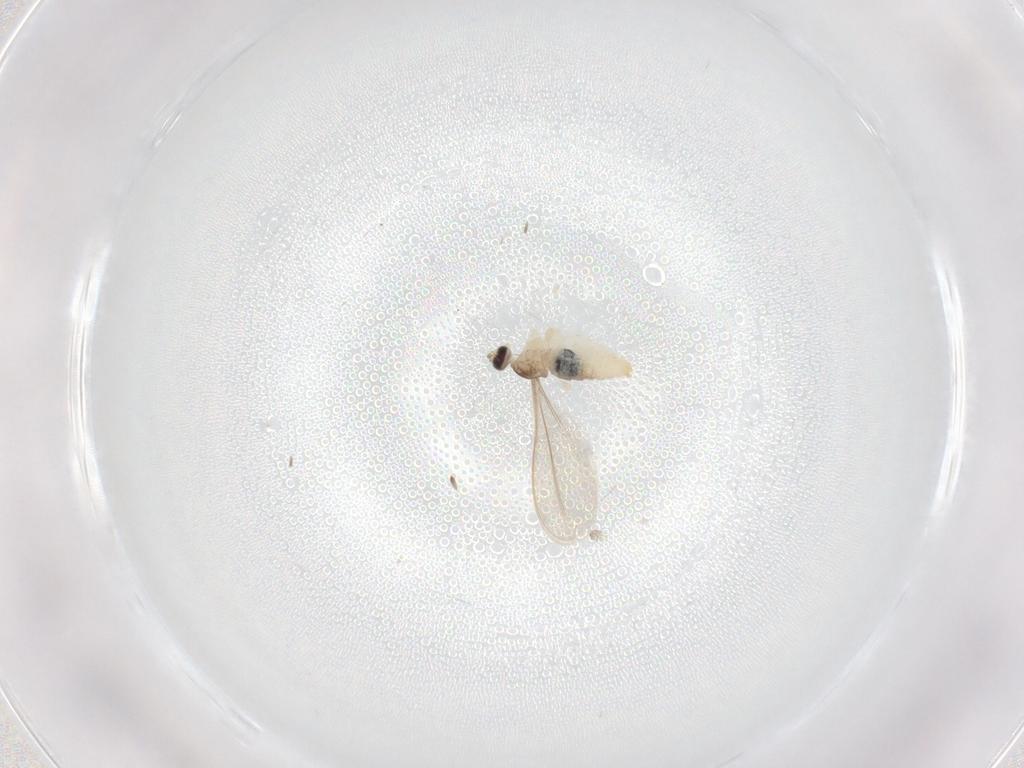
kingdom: Animalia
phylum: Arthropoda
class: Insecta
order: Diptera
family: Cecidomyiidae
